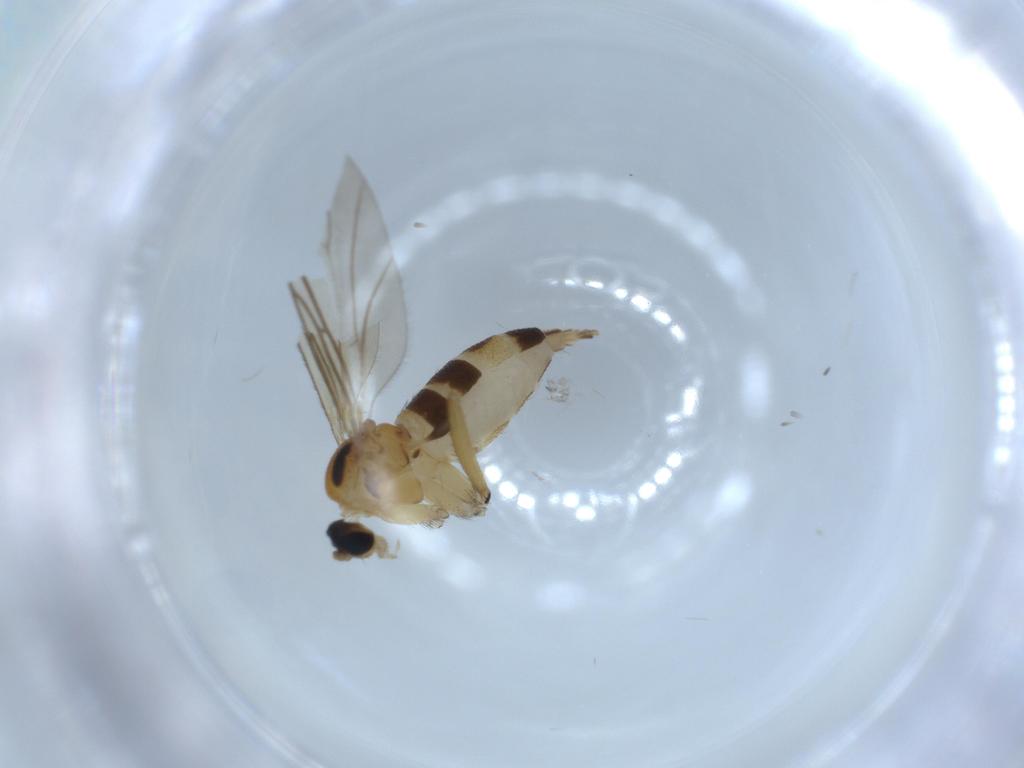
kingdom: Animalia
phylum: Arthropoda
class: Insecta
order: Diptera
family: Sciaridae
